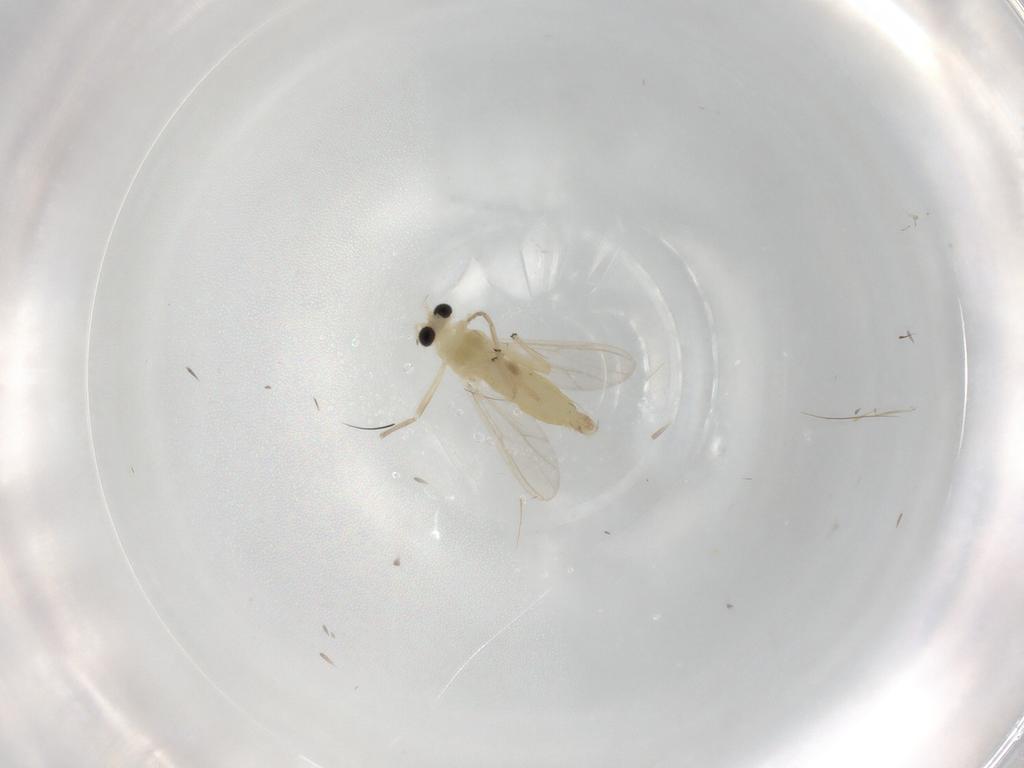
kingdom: Animalia
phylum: Arthropoda
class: Insecta
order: Diptera
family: Chironomidae
